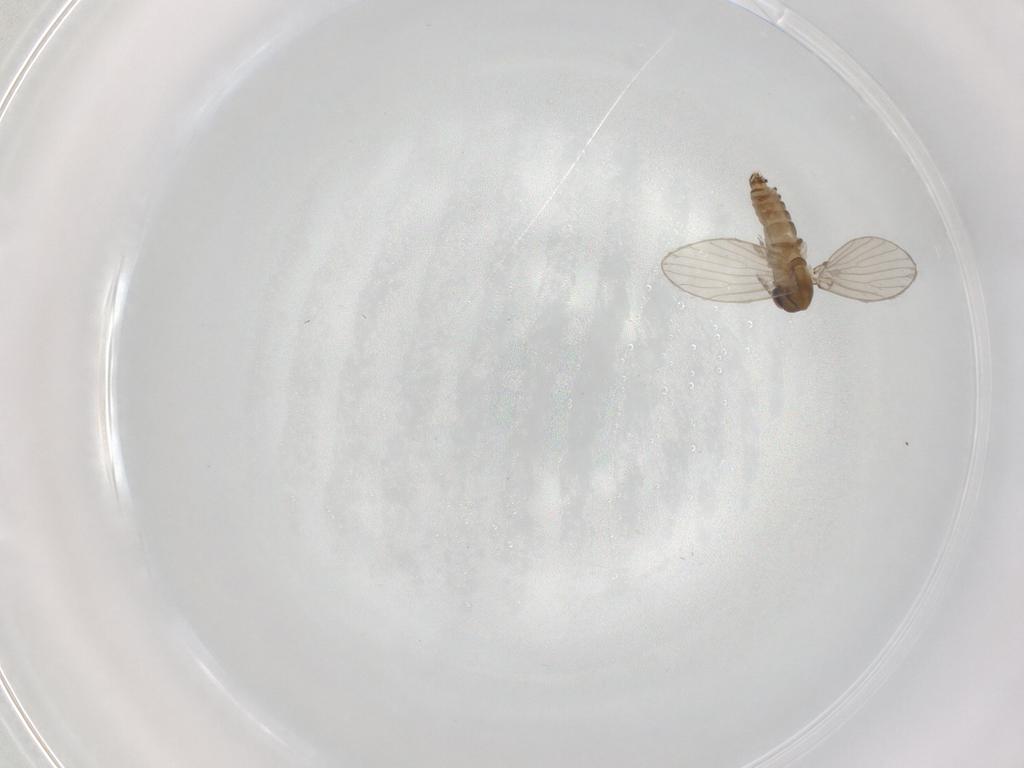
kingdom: Animalia
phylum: Arthropoda
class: Insecta
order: Diptera
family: Psychodidae
